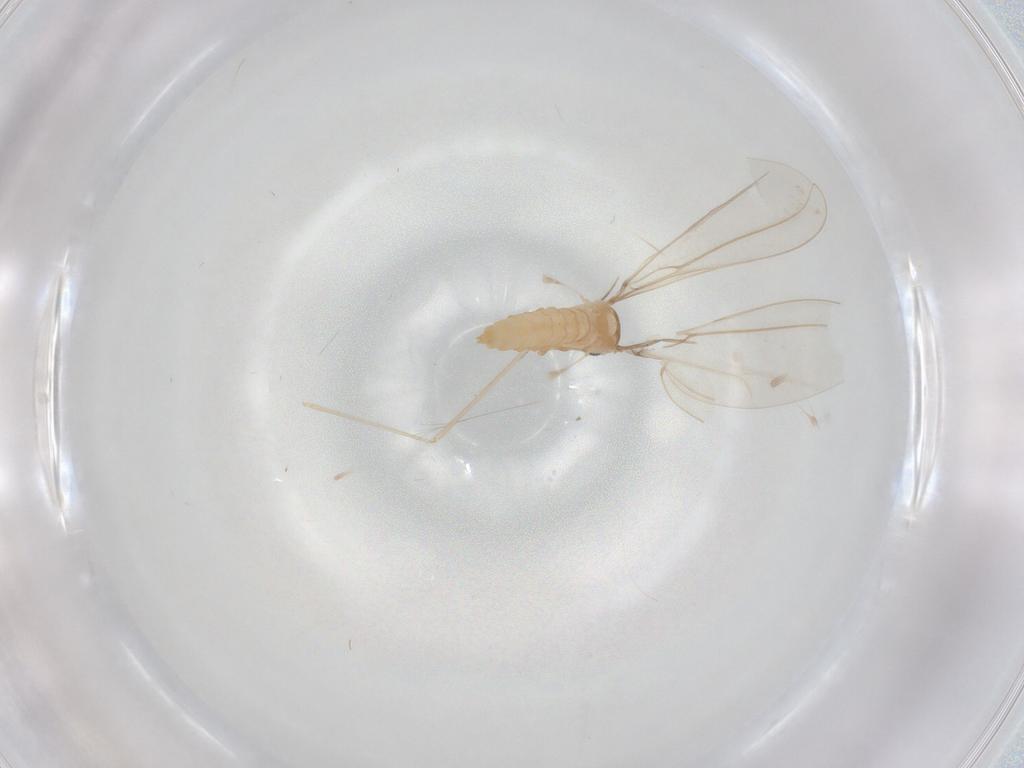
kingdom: Animalia
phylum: Arthropoda
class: Insecta
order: Diptera
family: Cecidomyiidae
